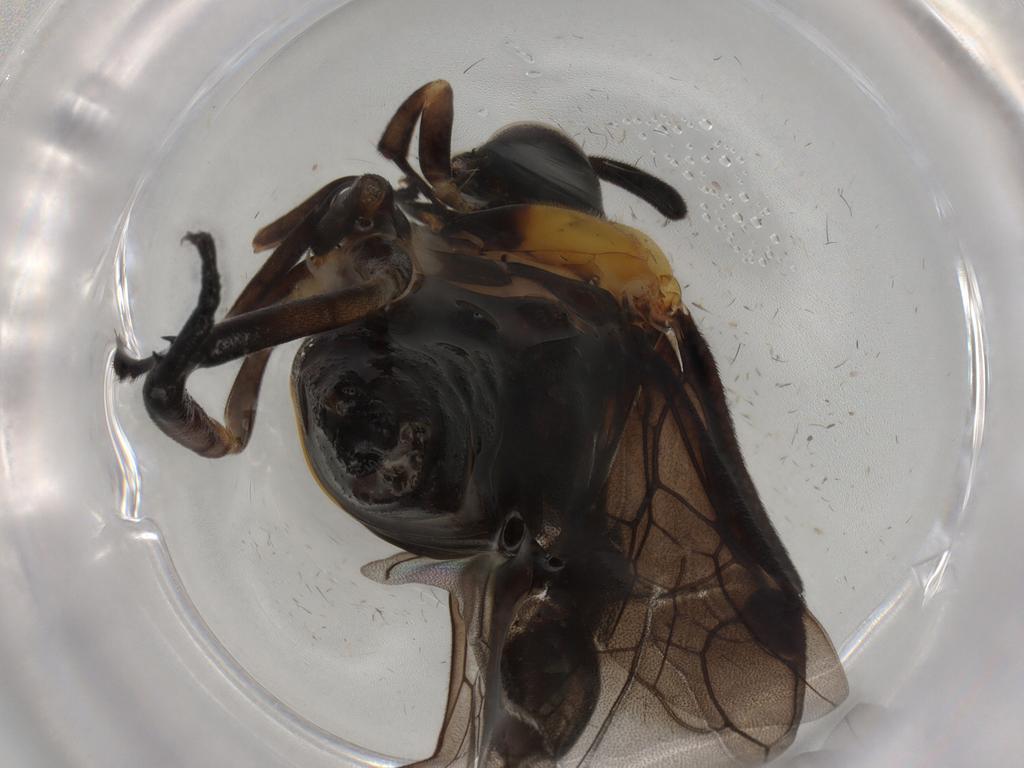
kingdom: Animalia
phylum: Arthropoda
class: Insecta
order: Hymenoptera
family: Argidae
